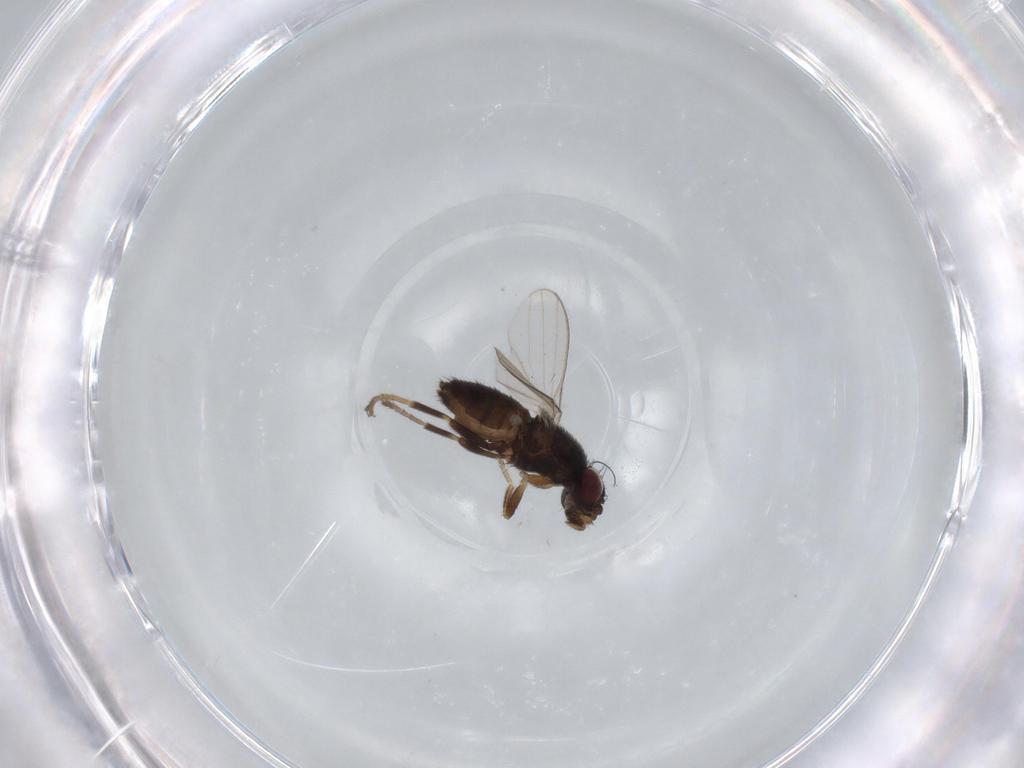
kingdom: Animalia
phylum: Arthropoda
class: Insecta
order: Diptera
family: Milichiidae
